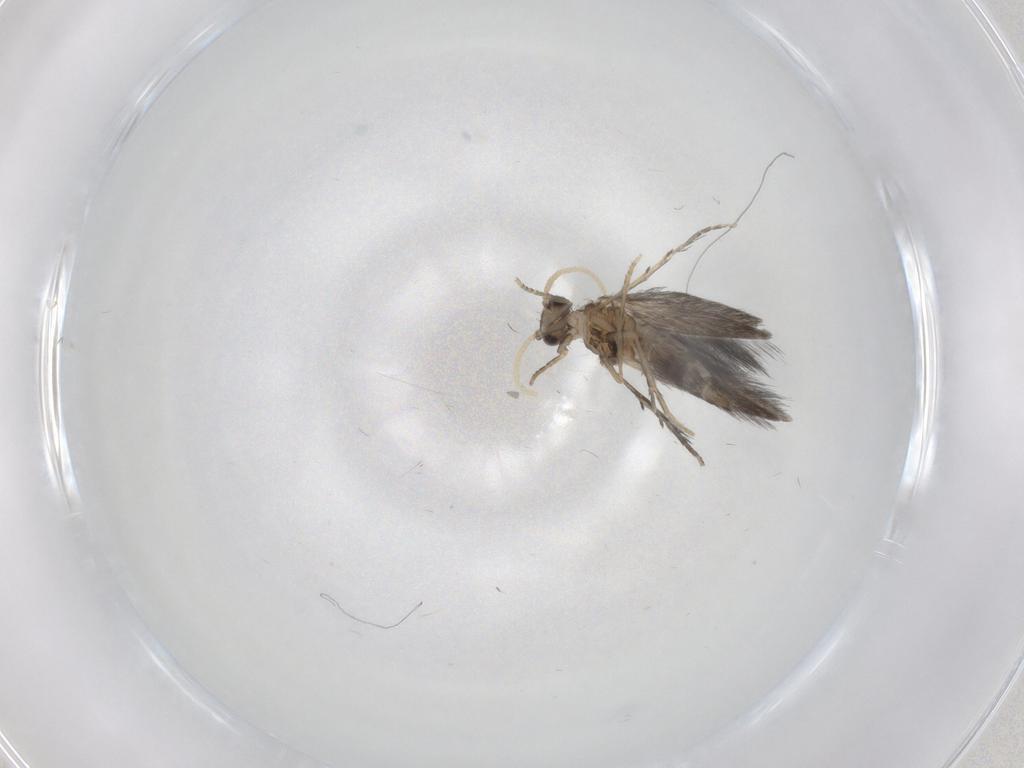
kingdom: Animalia
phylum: Arthropoda
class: Insecta
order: Trichoptera
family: Hydroptilidae
